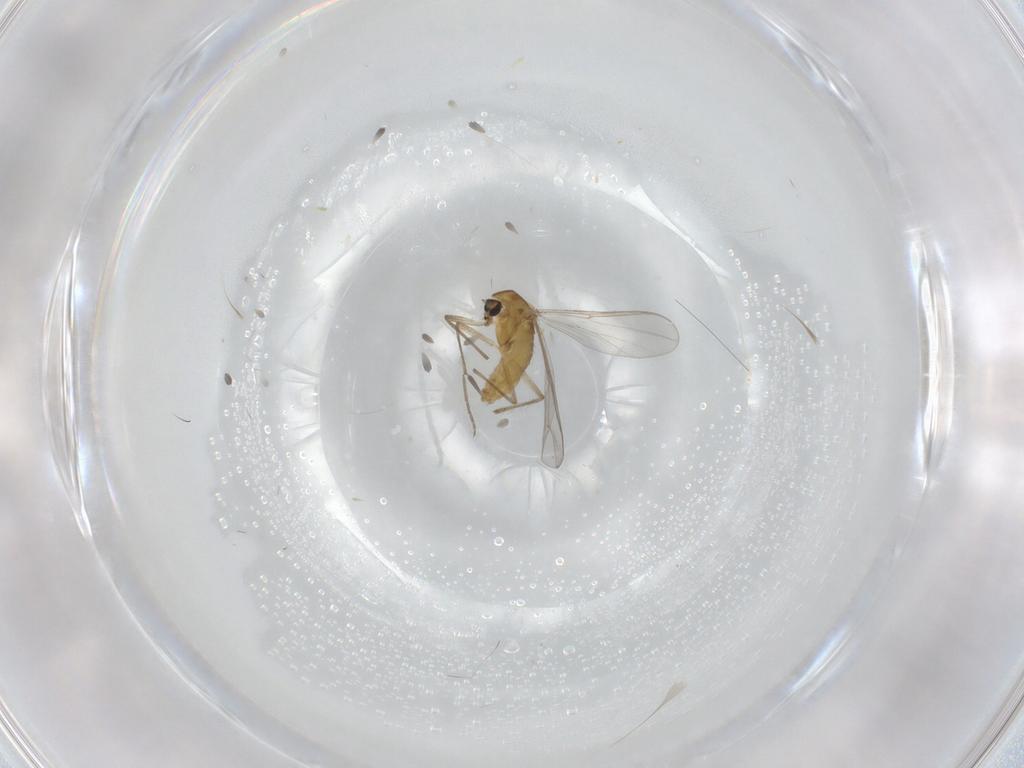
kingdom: Animalia
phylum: Arthropoda
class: Insecta
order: Diptera
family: Chironomidae
